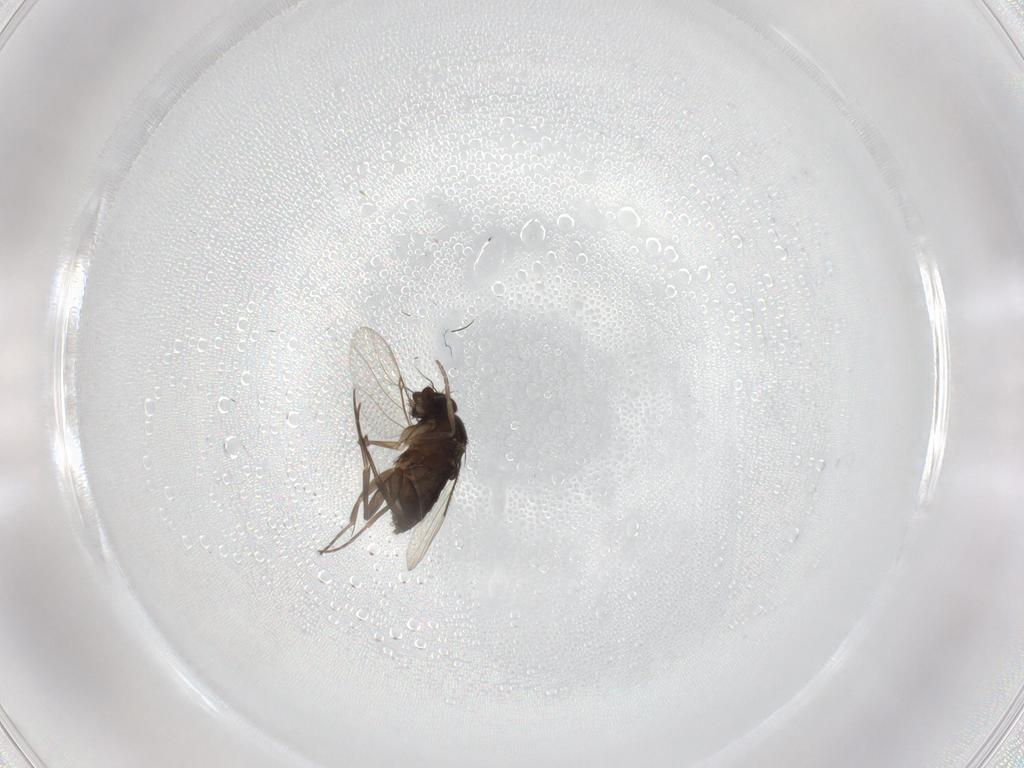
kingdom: Animalia
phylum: Arthropoda
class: Insecta
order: Diptera
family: Phoridae
